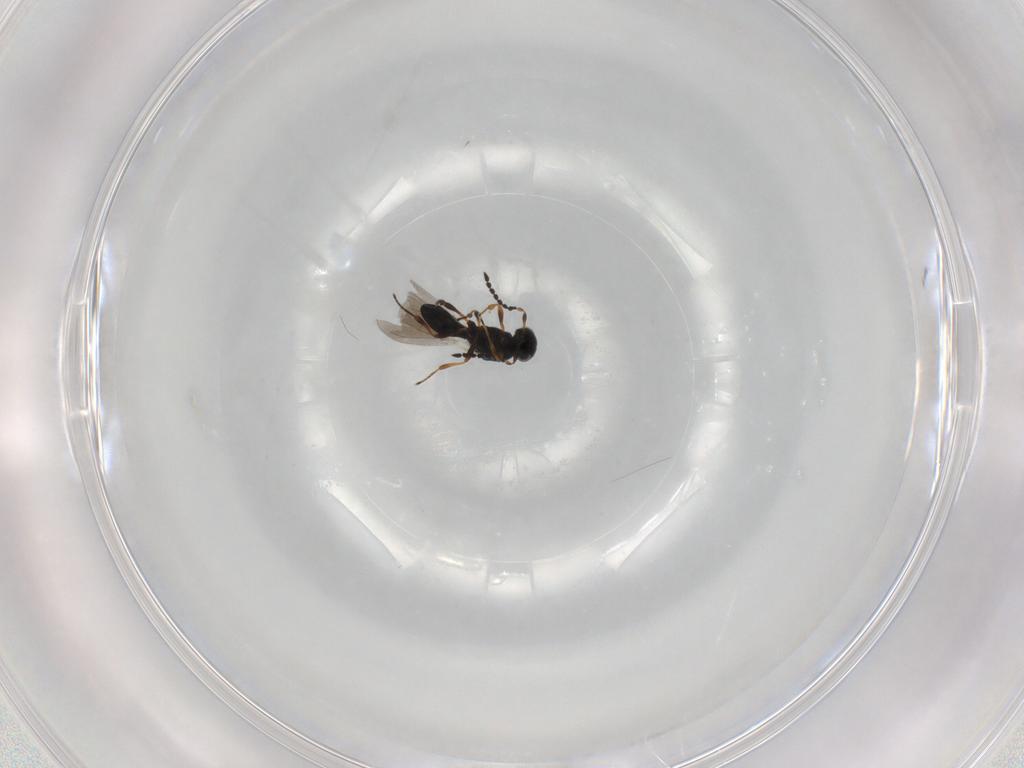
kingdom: Animalia
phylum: Arthropoda
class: Insecta
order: Hymenoptera
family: Platygastridae
